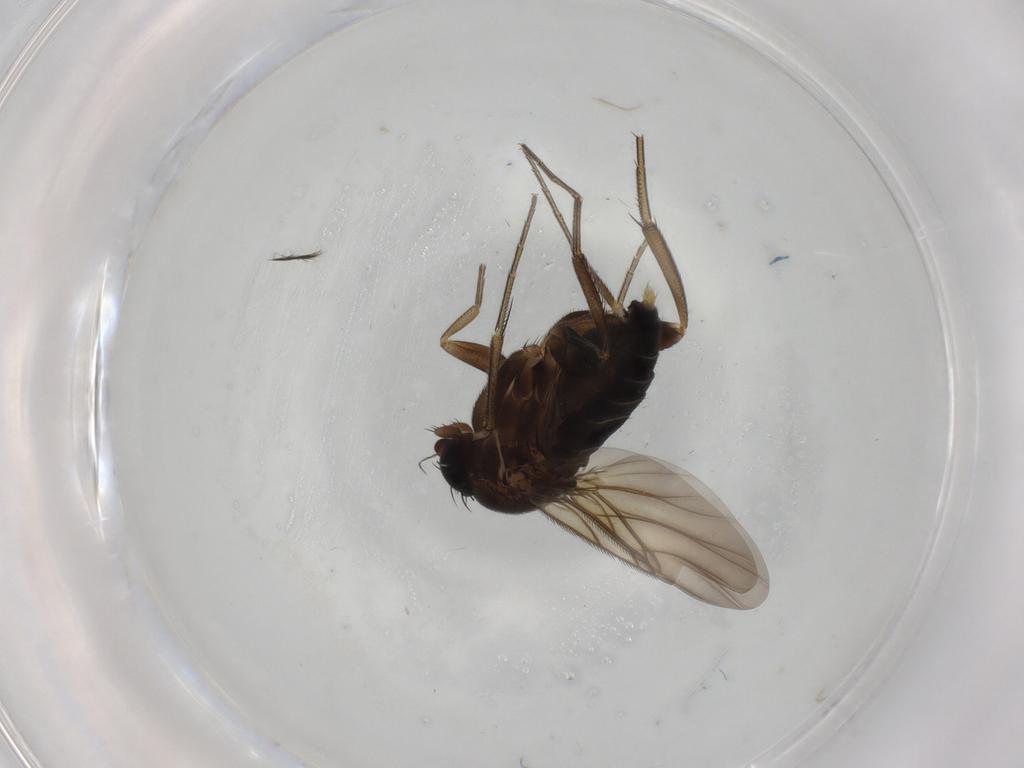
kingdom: Animalia
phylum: Arthropoda
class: Insecta
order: Diptera
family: Phoridae
